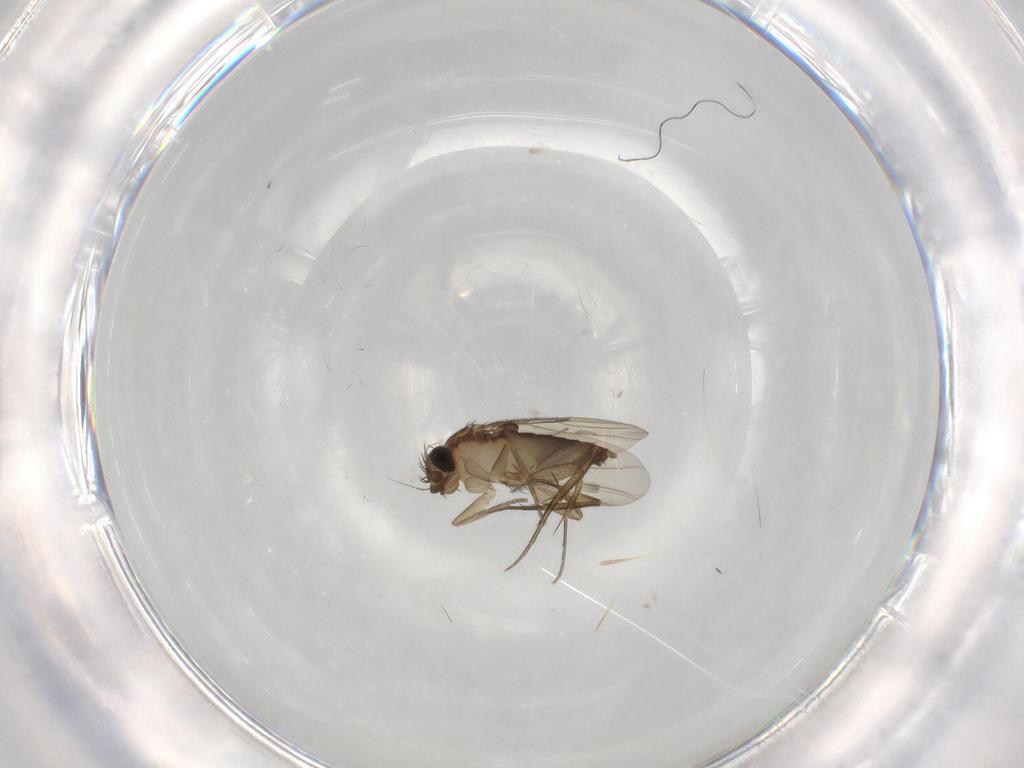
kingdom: Animalia
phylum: Arthropoda
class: Insecta
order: Diptera
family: Phoridae
